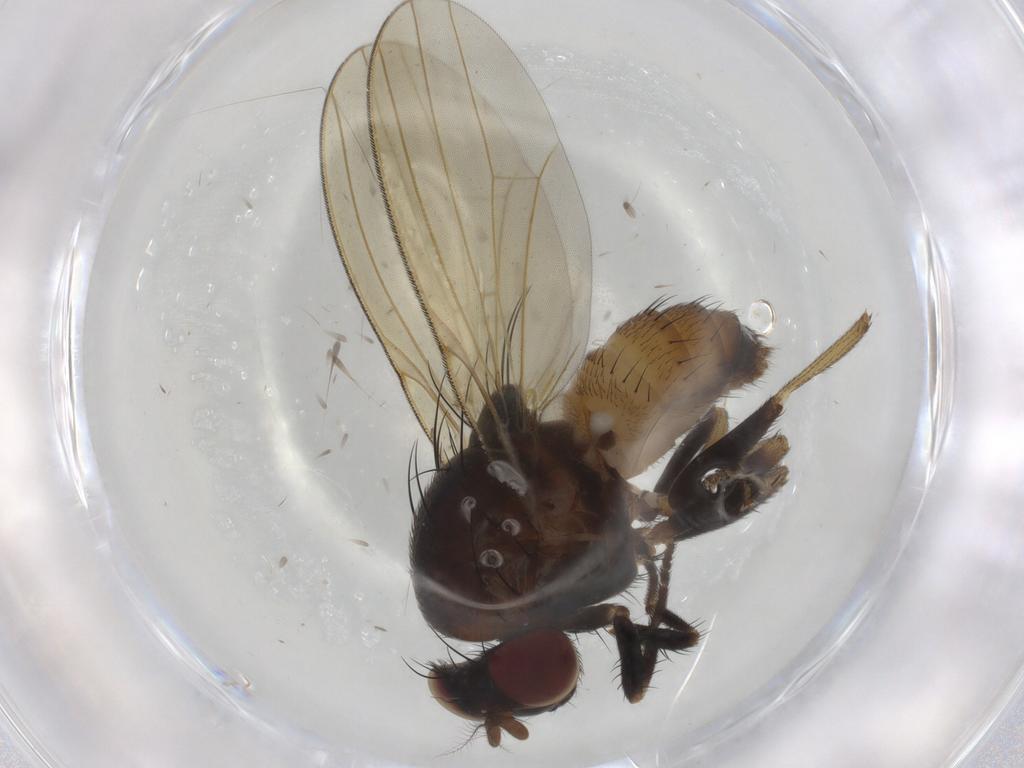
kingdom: Animalia
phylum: Arthropoda
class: Insecta
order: Diptera
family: Lauxaniidae
